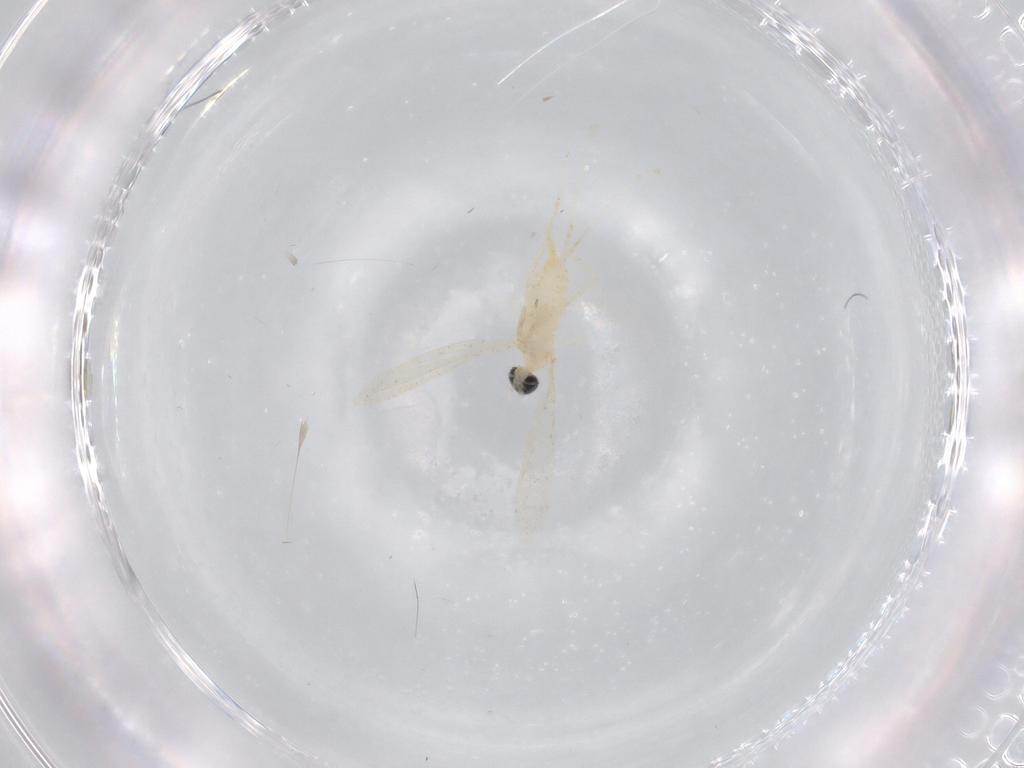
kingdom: Animalia
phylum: Arthropoda
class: Insecta
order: Diptera
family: Cecidomyiidae
